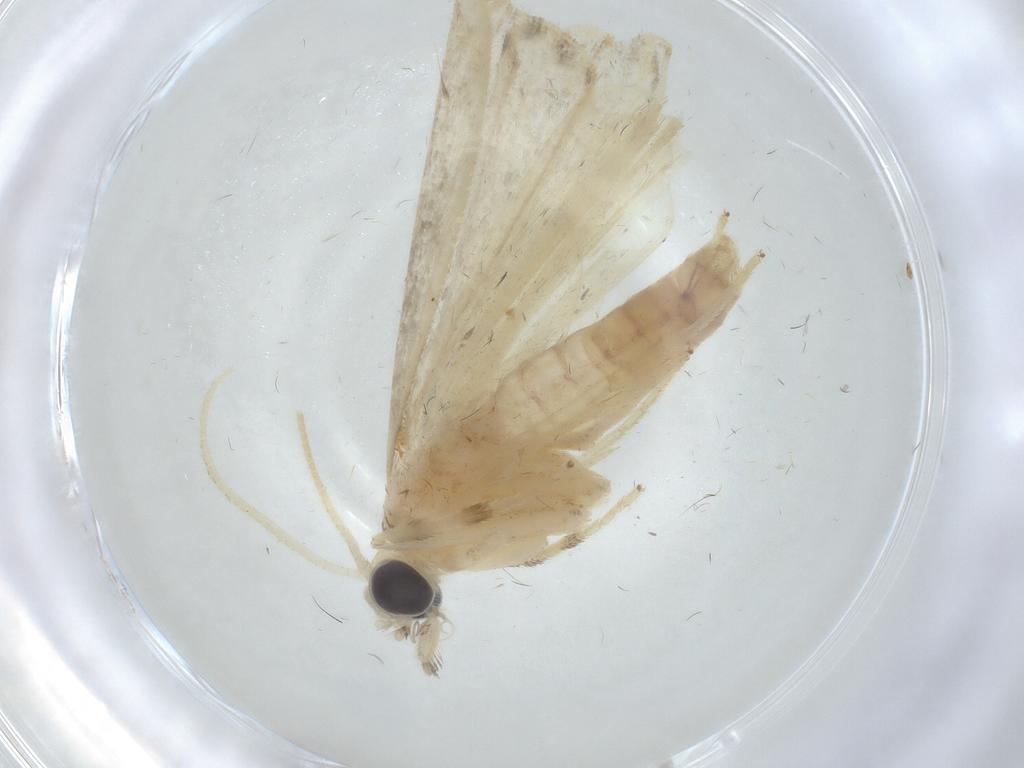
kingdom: Animalia
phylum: Arthropoda
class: Insecta
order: Lepidoptera
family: Crambidae
